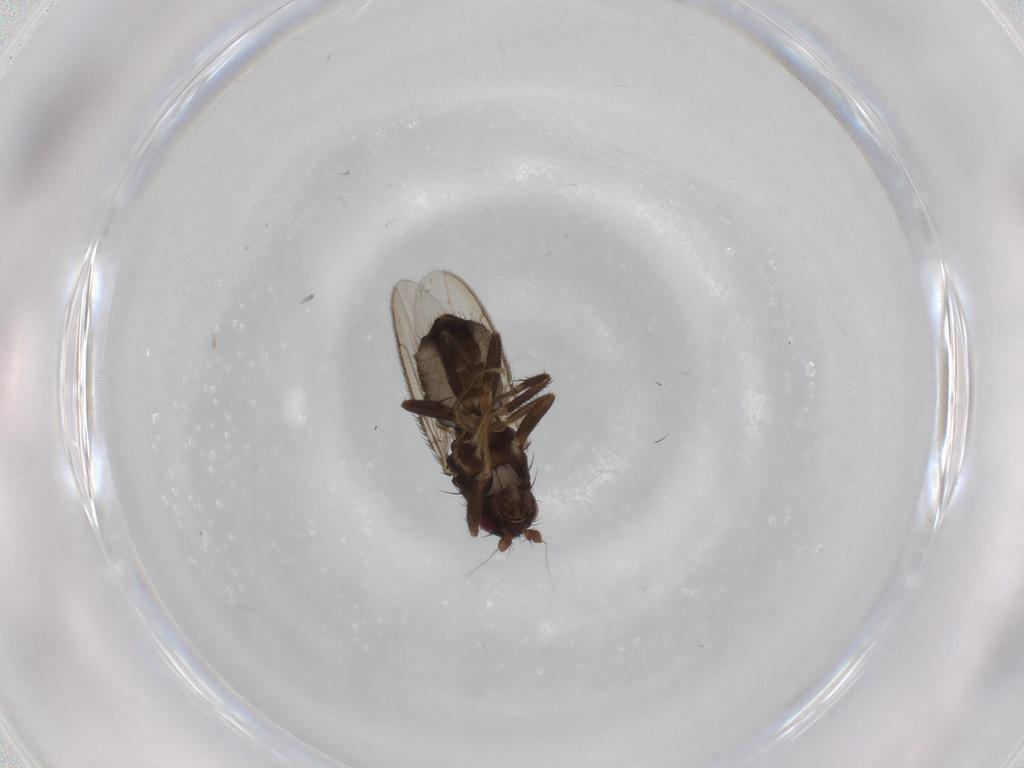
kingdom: Animalia
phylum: Arthropoda
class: Insecta
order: Diptera
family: Sphaeroceridae
